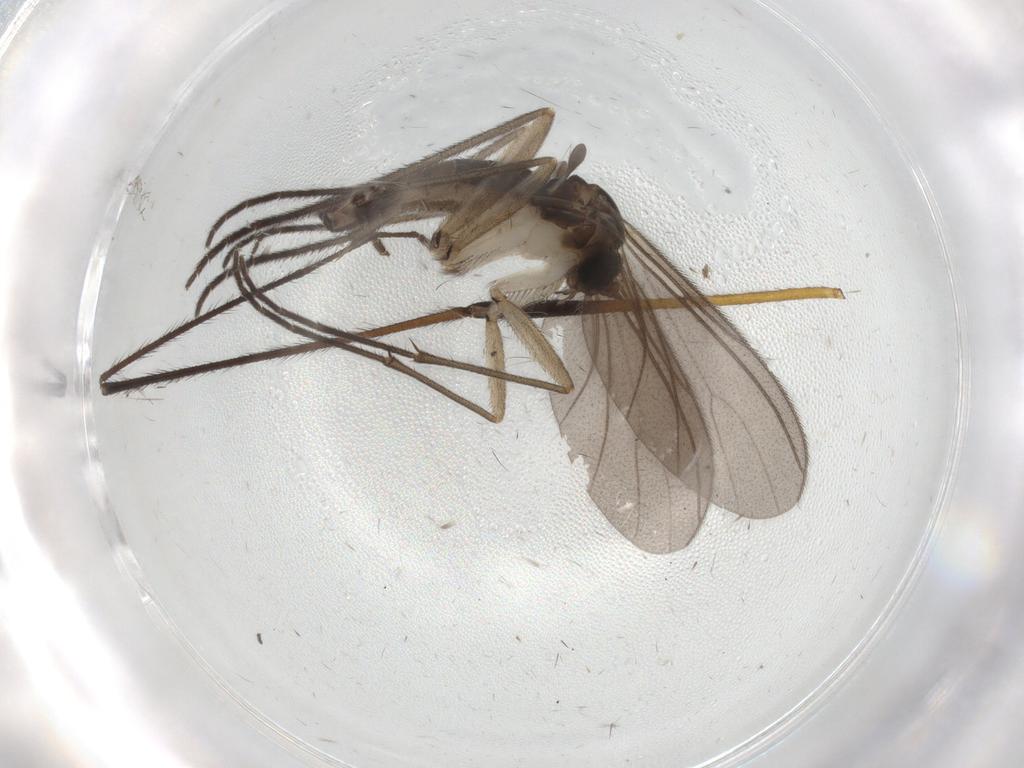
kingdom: Animalia
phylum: Arthropoda
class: Insecta
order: Diptera
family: Sciaridae
